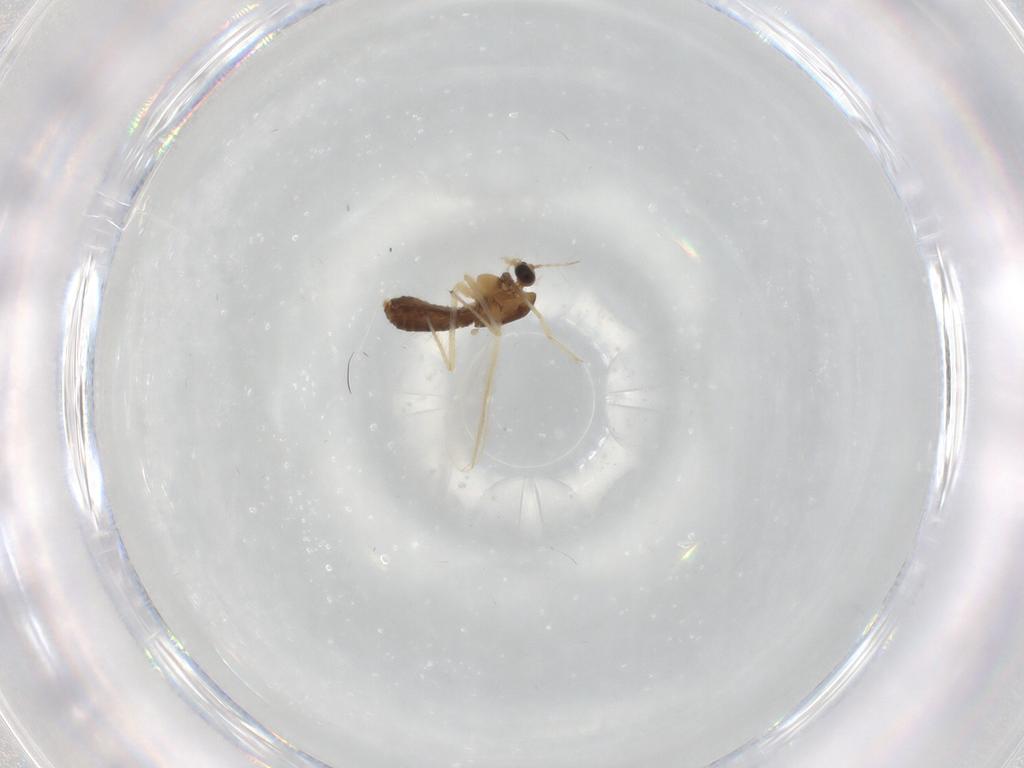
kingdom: Animalia
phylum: Arthropoda
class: Insecta
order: Diptera
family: Chironomidae
